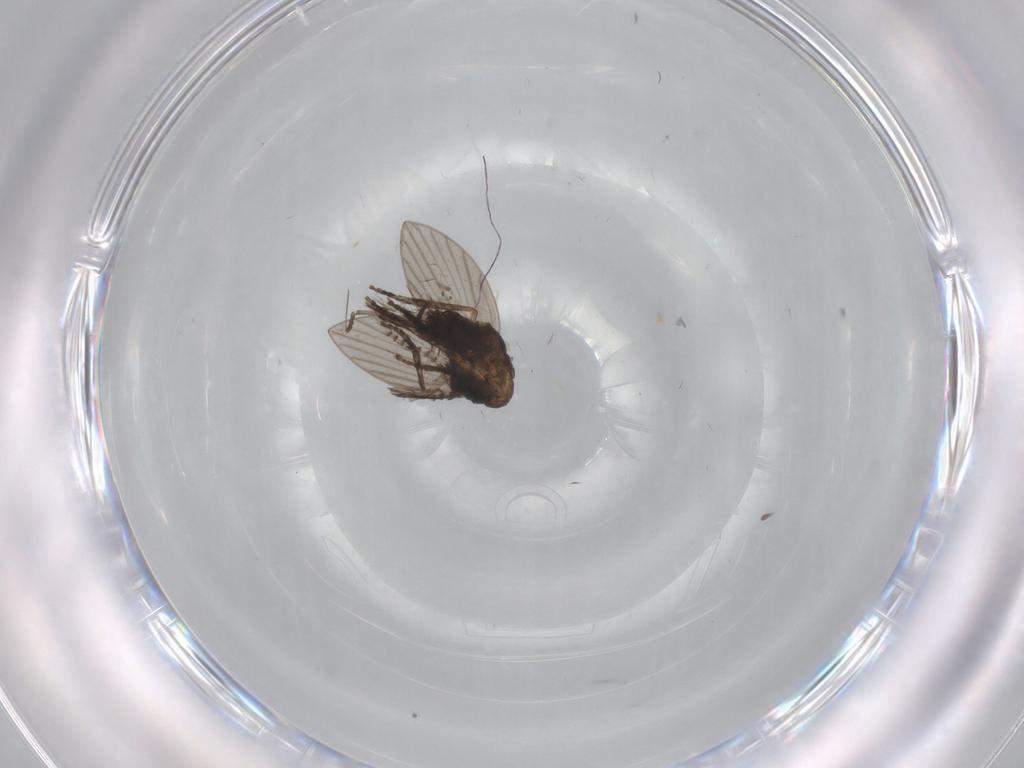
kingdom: Animalia
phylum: Arthropoda
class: Insecta
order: Diptera
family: Psychodidae
